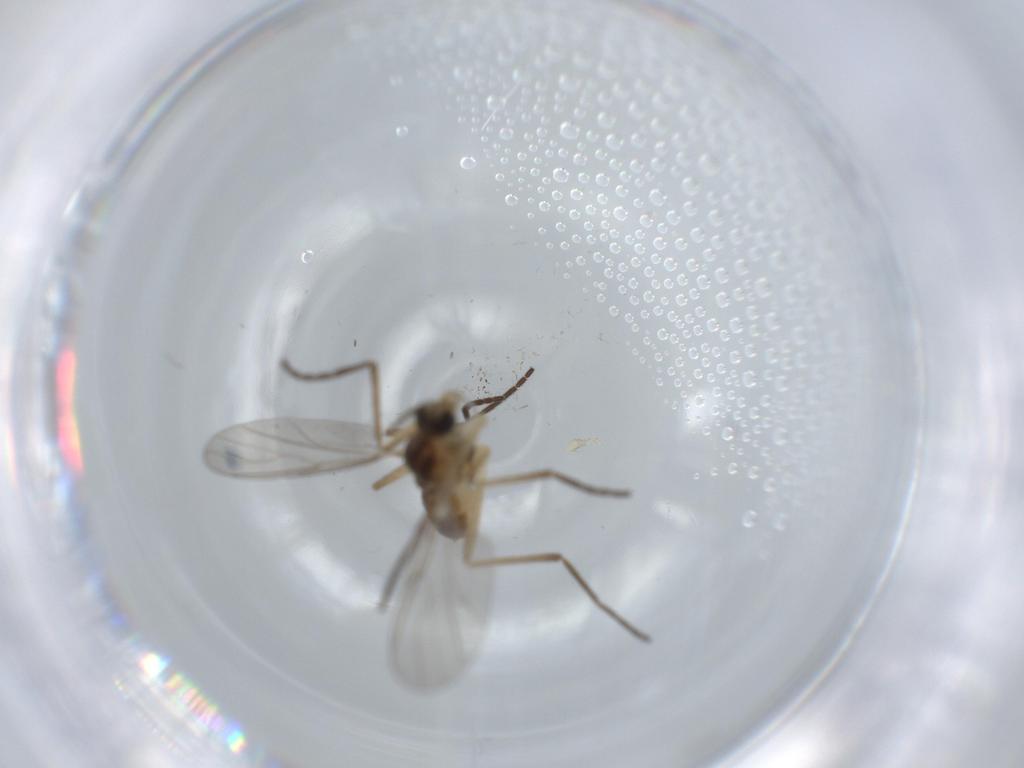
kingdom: Animalia
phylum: Arthropoda
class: Insecta
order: Diptera
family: Cecidomyiidae
